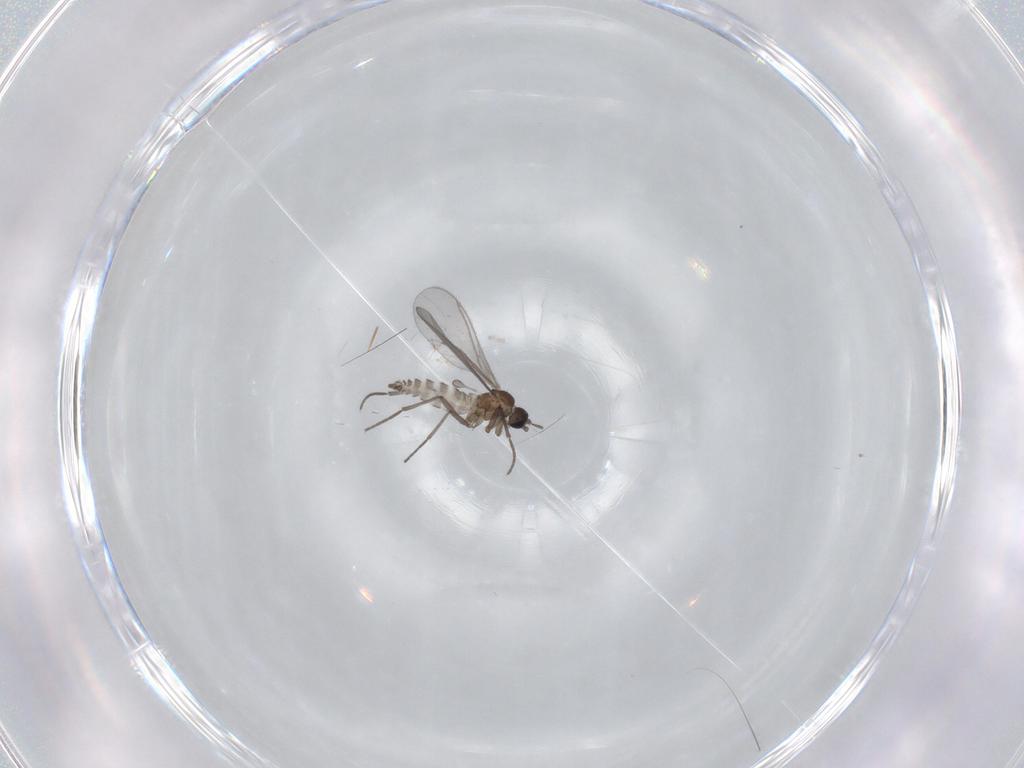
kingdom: Animalia
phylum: Arthropoda
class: Insecta
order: Diptera
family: Sciaridae
